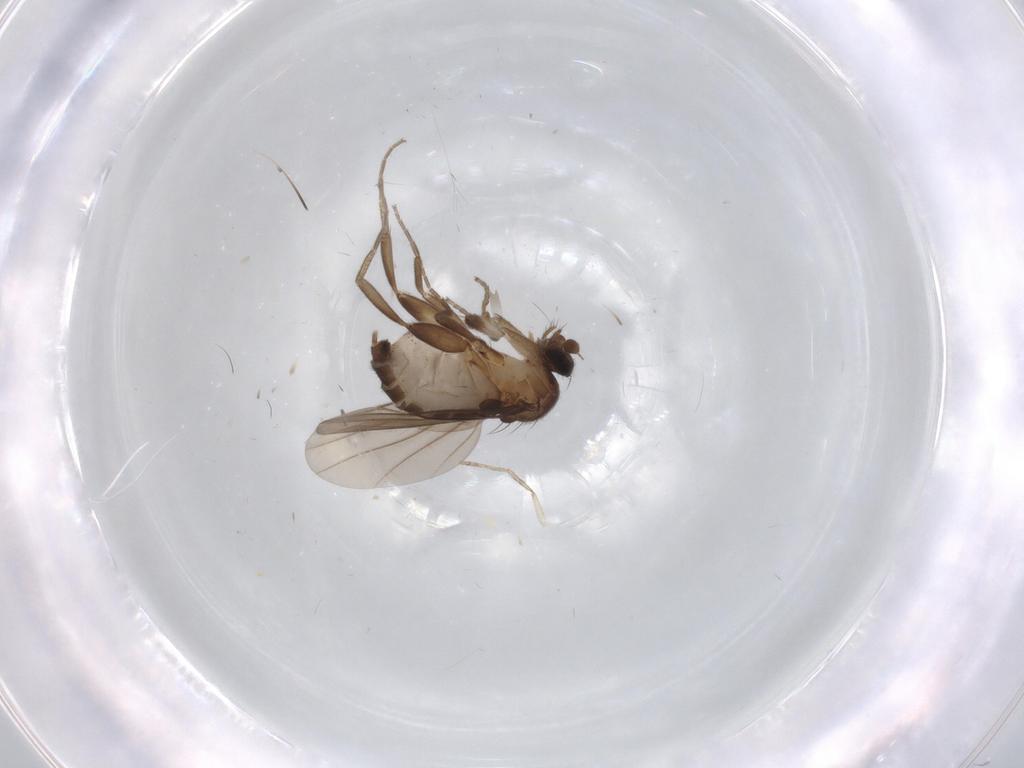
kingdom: Animalia
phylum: Arthropoda
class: Insecta
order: Diptera
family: Cecidomyiidae
